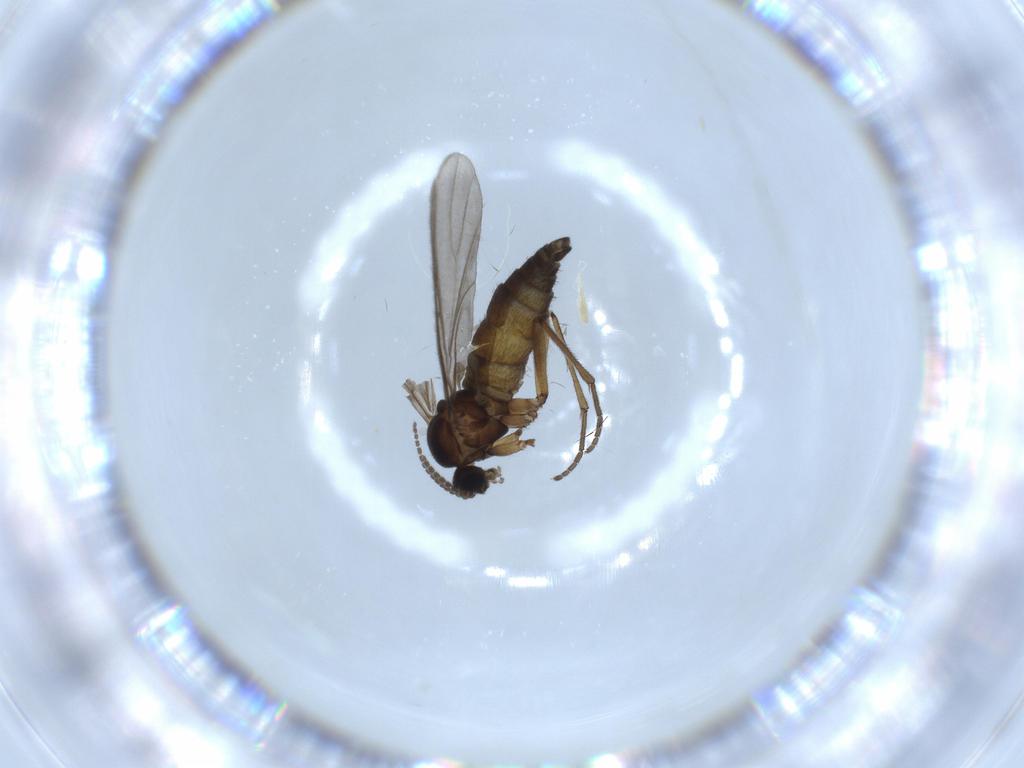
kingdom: Animalia
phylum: Arthropoda
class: Insecta
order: Diptera
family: Sciaridae
